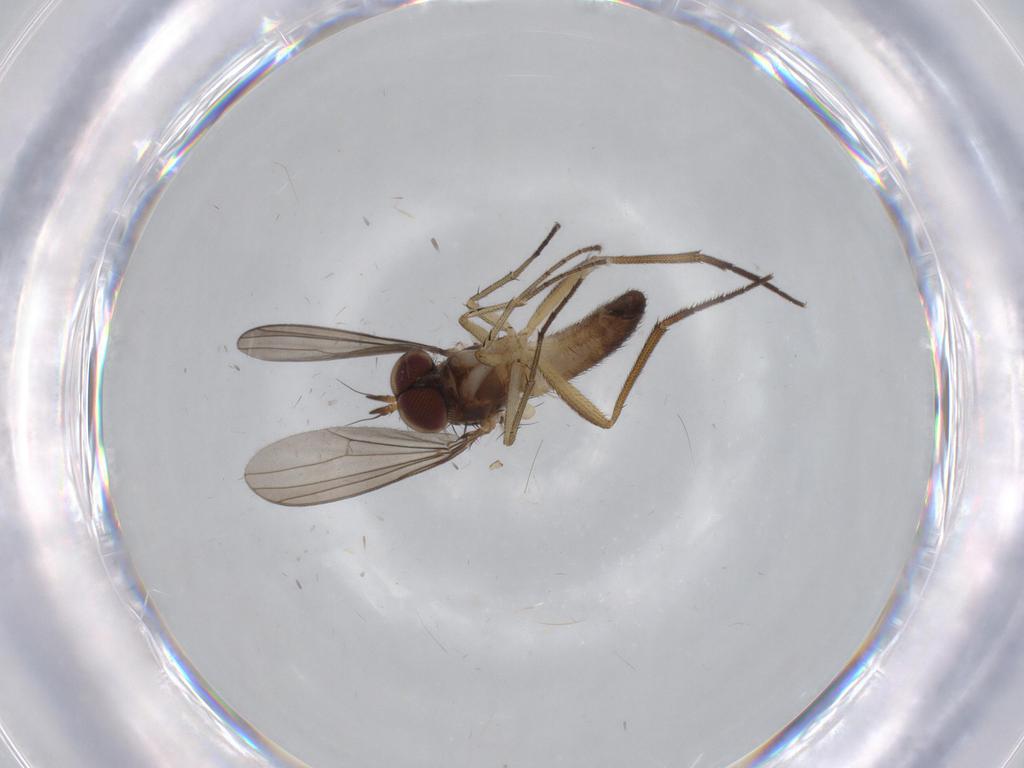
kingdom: Animalia
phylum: Arthropoda
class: Insecta
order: Diptera
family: Dolichopodidae
